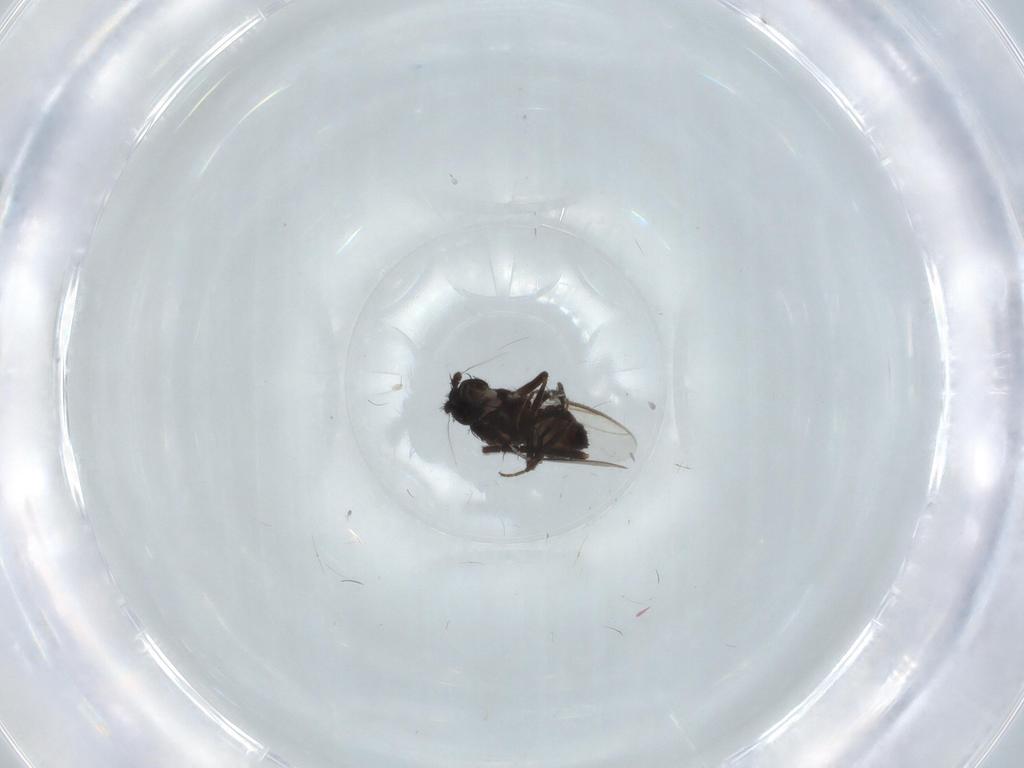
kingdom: Animalia
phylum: Arthropoda
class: Insecta
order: Diptera
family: Sphaeroceridae
